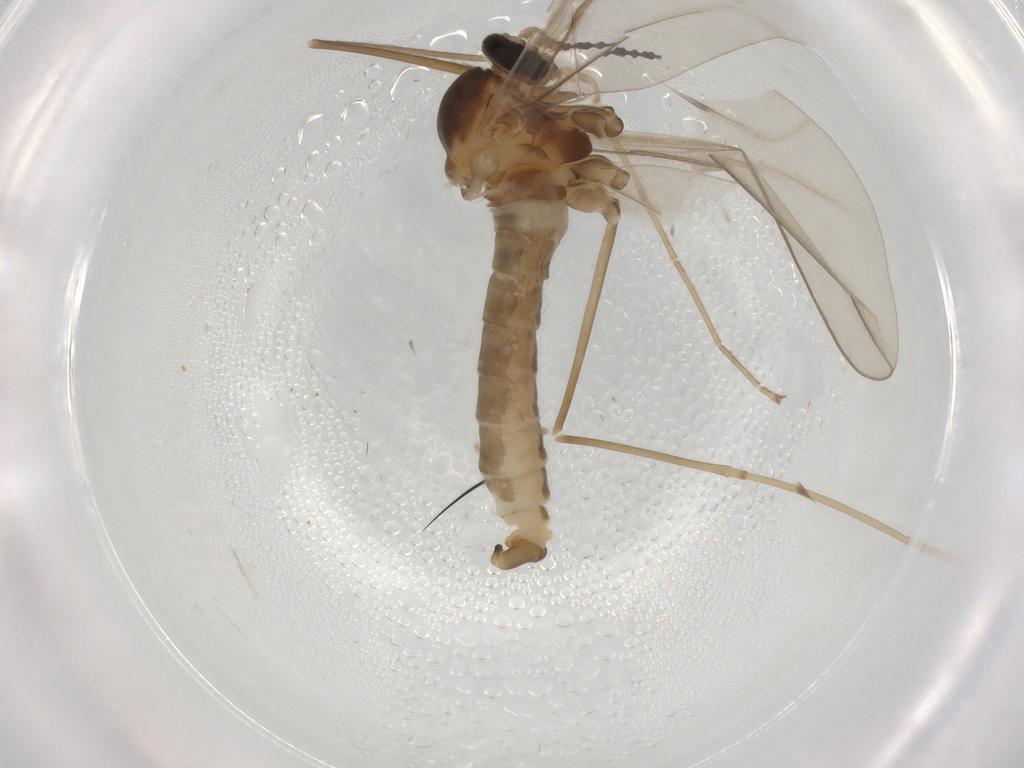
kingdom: Animalia
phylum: Arthropoda
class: Insecta
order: Diptera
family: Cecidomyiidae
